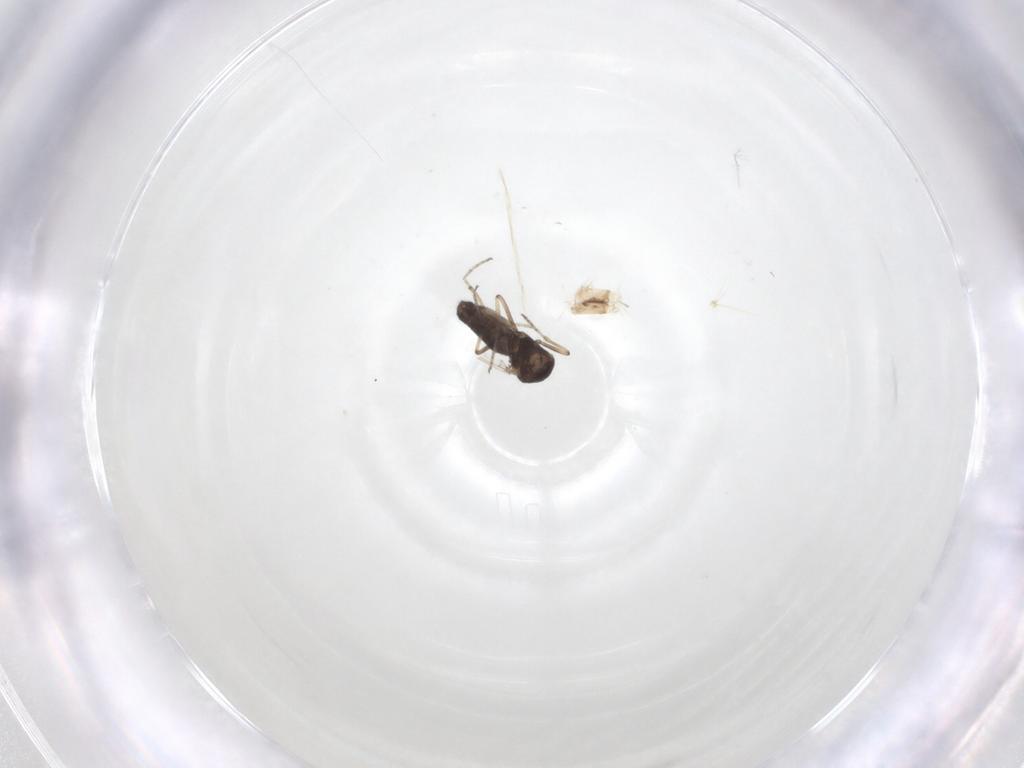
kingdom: Animalia
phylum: Arthropoda
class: Insecta
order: Diptera
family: Ceratopogonidae
